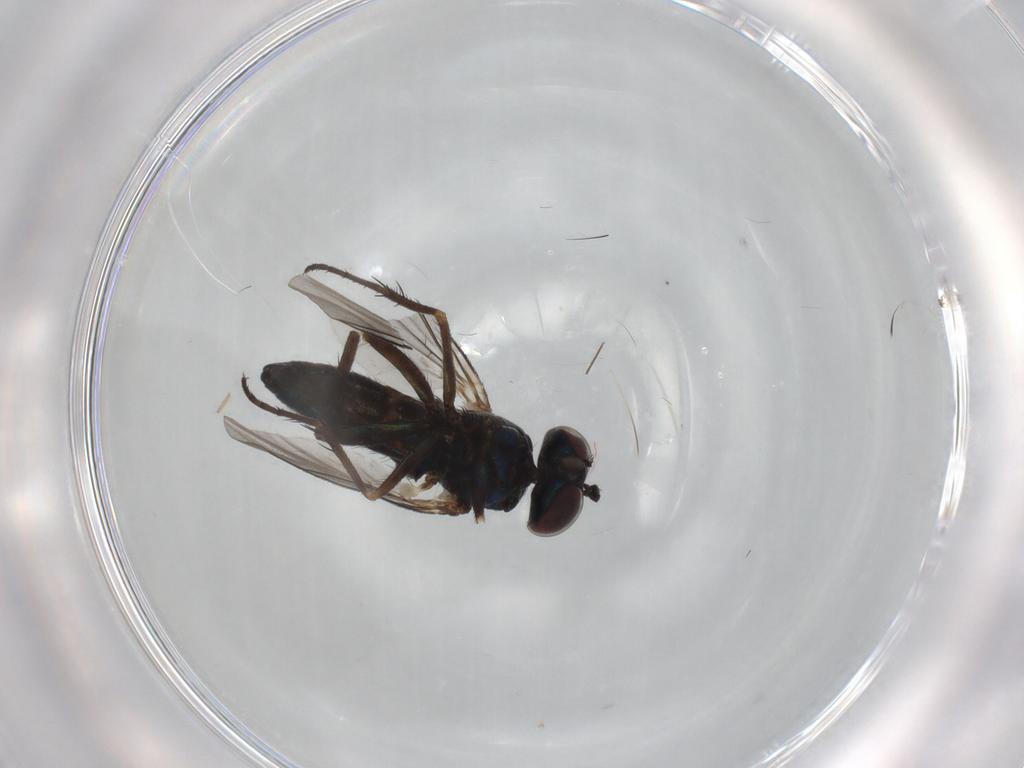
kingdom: Animalia
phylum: Arthropoda
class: Insecta
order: Diptera
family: Dolichopodidae
